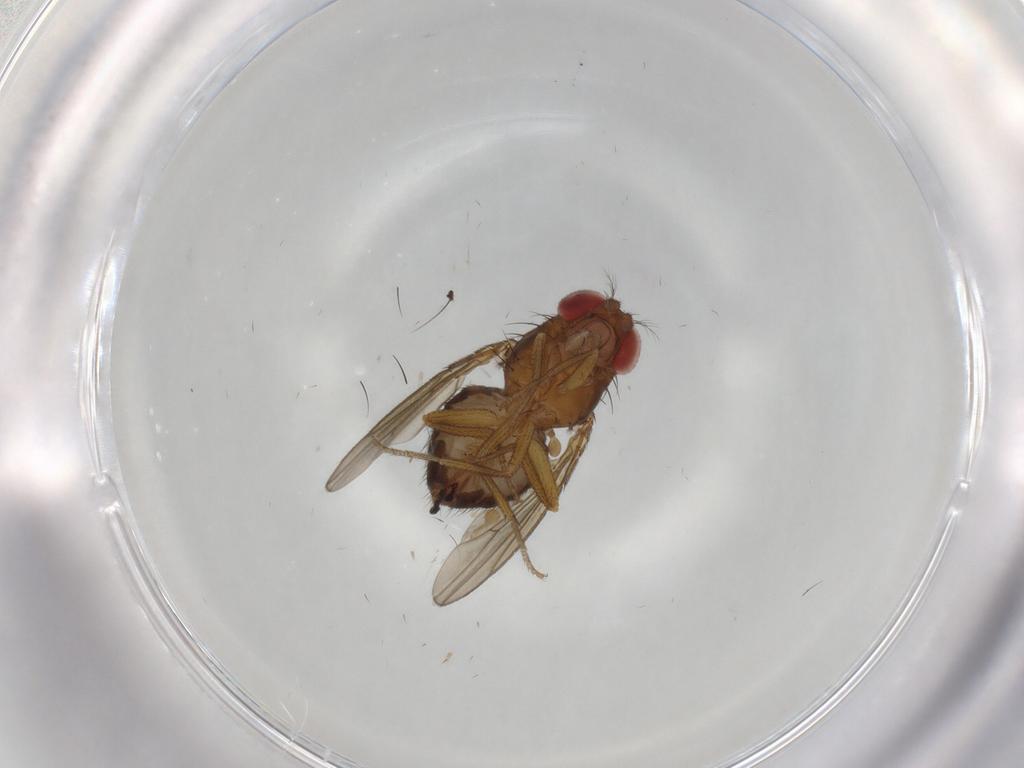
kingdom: Animalia
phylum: Arthropoda
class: Insecta
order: Diptera
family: Drosophilidae
